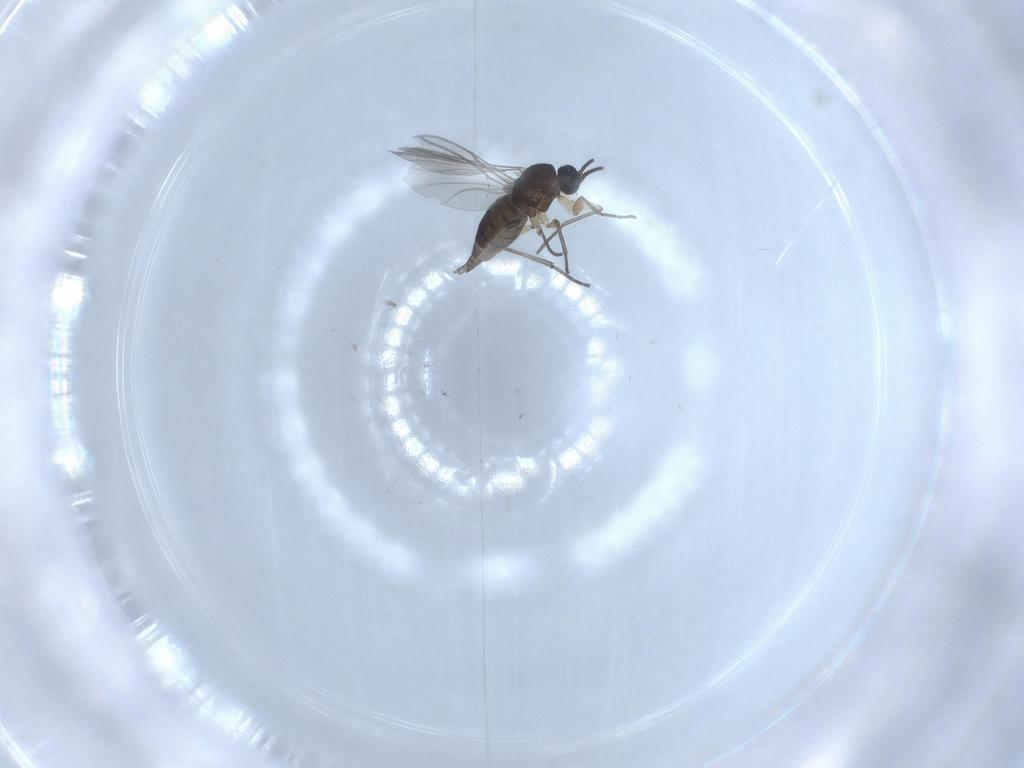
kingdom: Animalia
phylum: Arthropoda
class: Insecta
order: Diptera
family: Sciaridae
